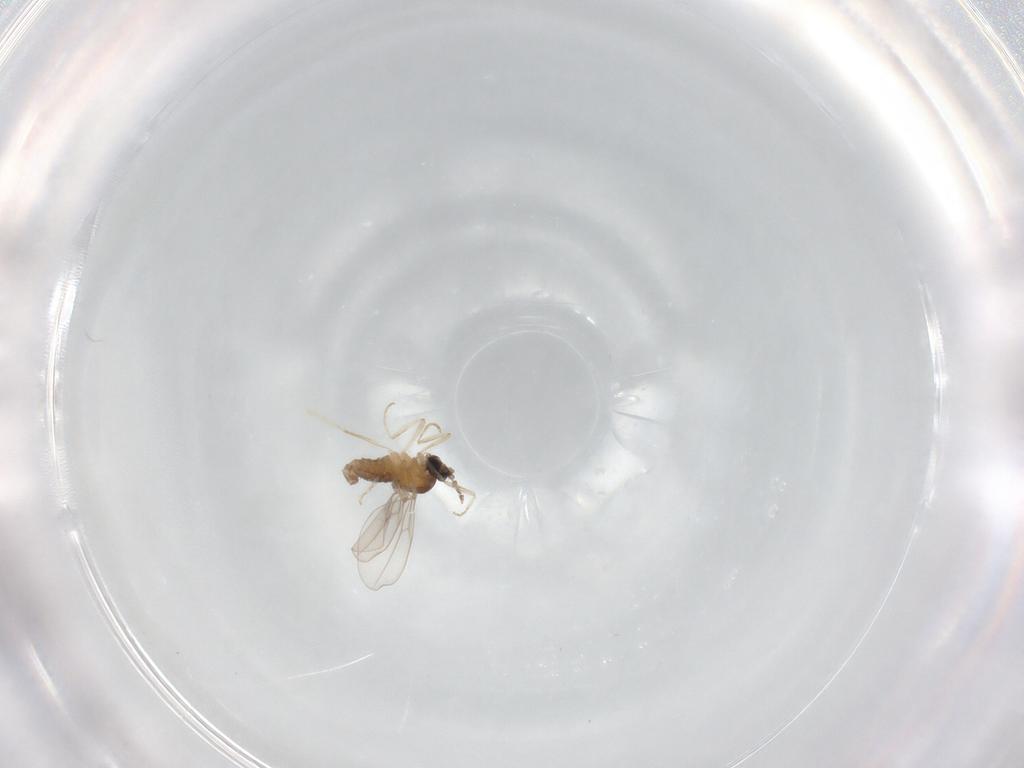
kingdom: Animalia
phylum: Arthropoda
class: Insecta
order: Diptera
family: Cecidomyiidae
